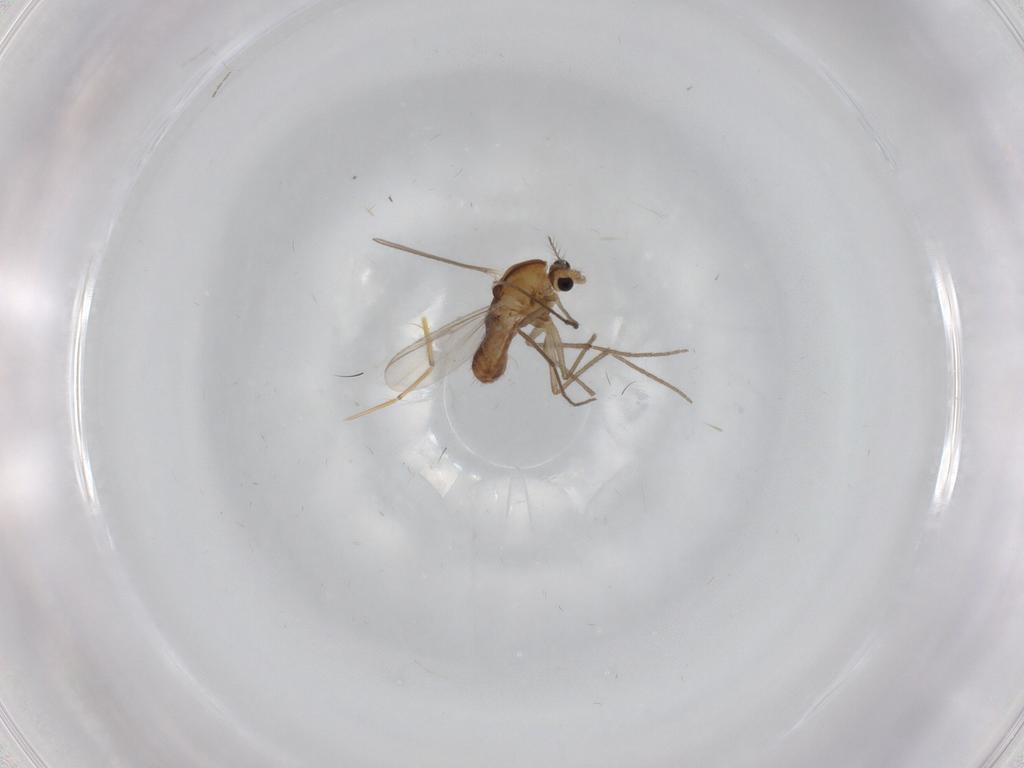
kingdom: Animalia
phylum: Arthropoda
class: Insecta
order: Diptera
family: Chironomidae
